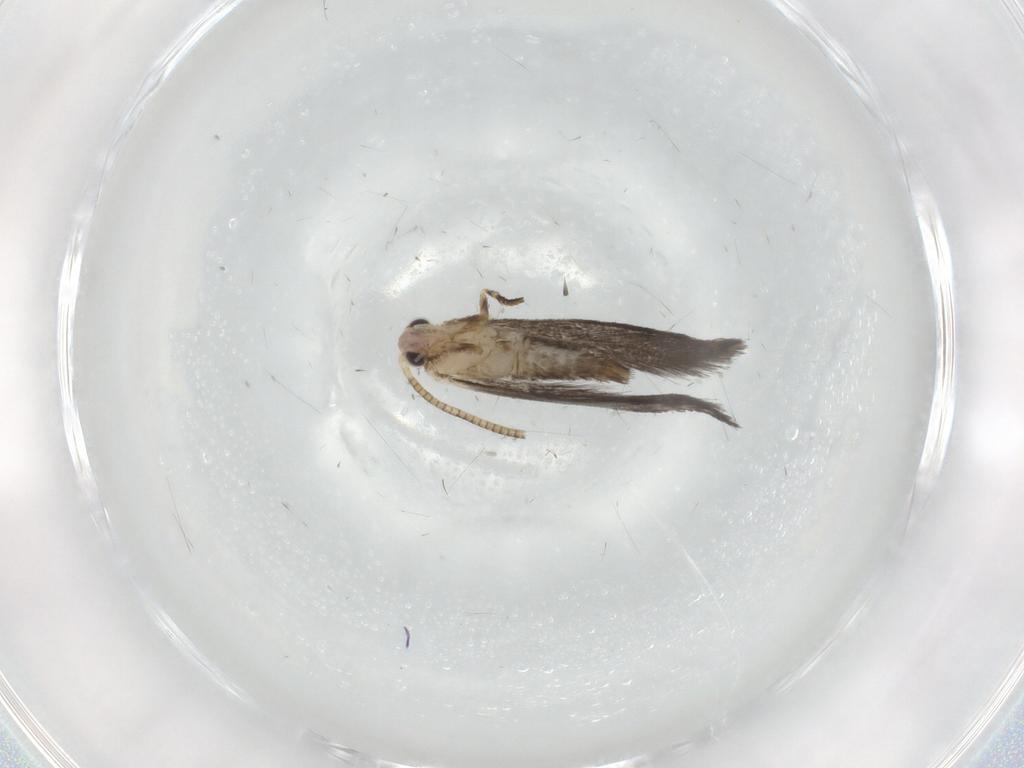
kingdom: Animalia
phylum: Arthropoda
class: Insecta
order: Lepidoptera
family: Tineidae
